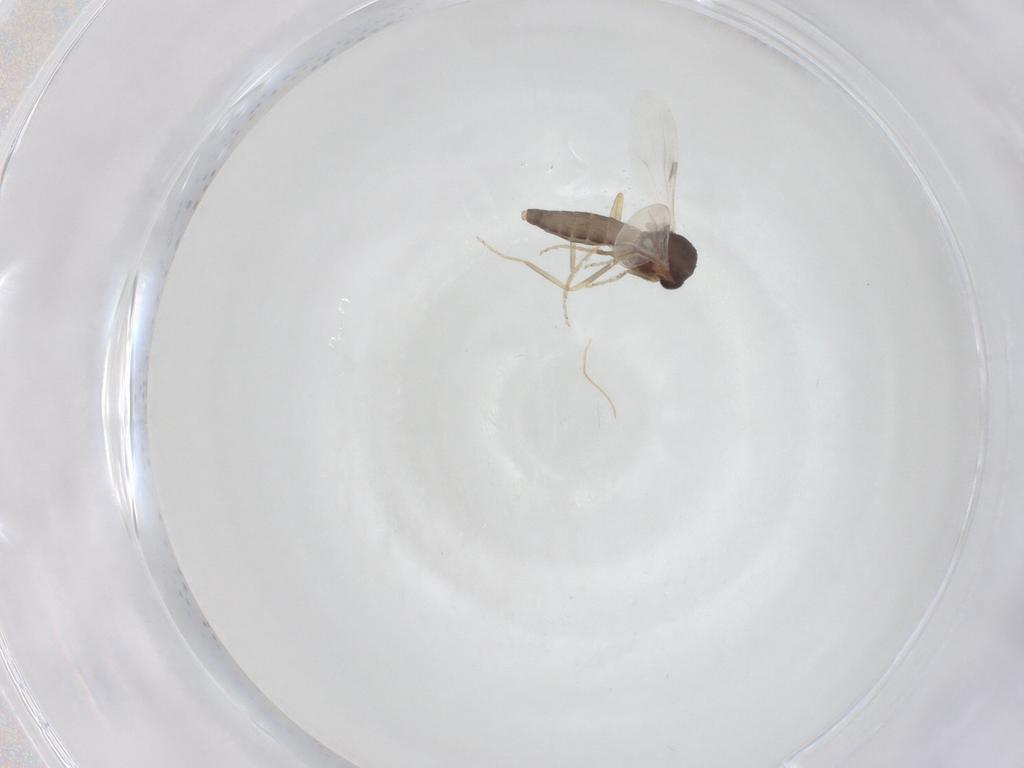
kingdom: Animalia
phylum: Arthropoda
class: Insecta
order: Diptera
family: Ceratopogonidae
